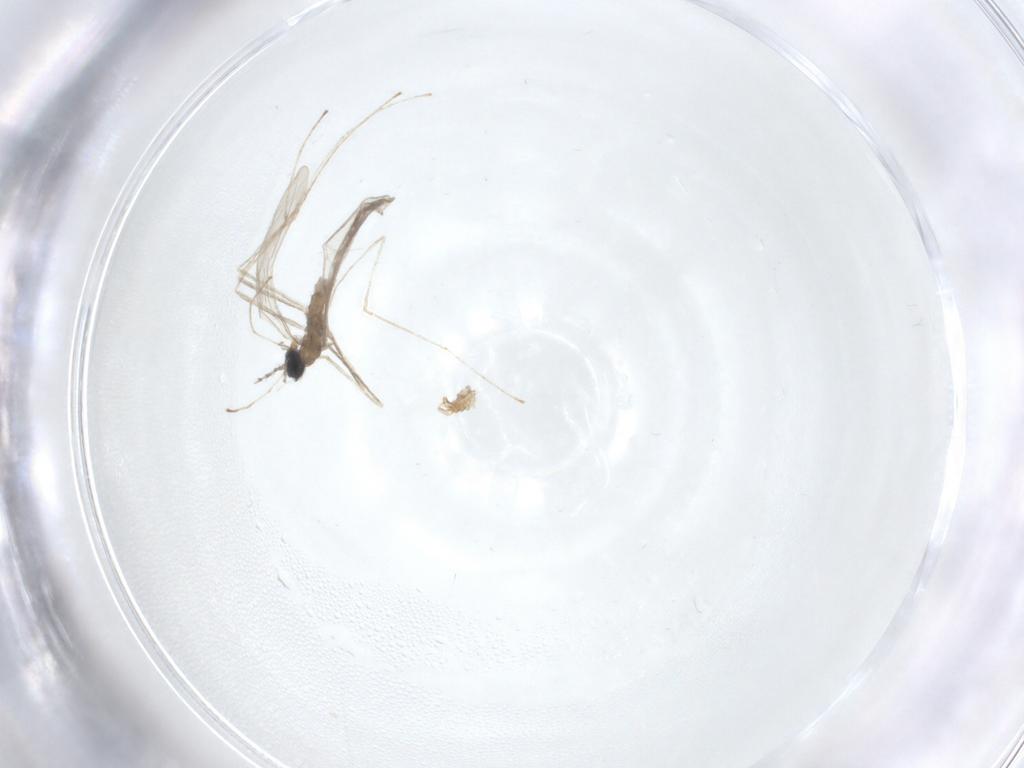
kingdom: Animalia
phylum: Arthropoda
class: Insecta
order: Diptera
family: Cecidomyiidae
